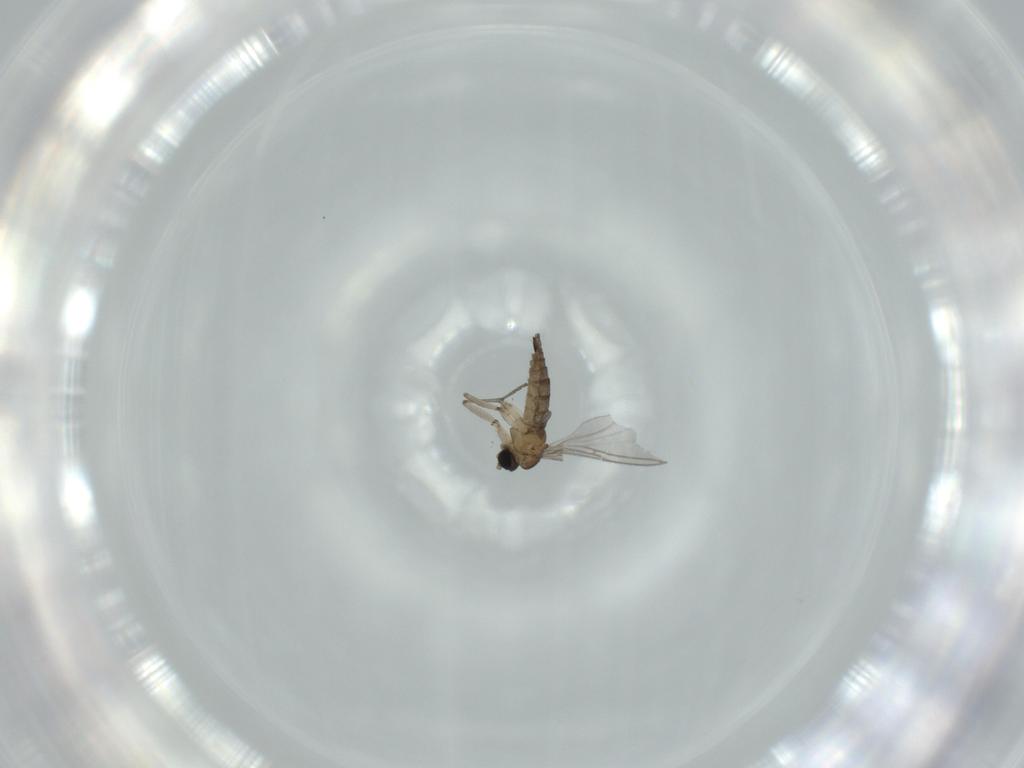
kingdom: Animalia
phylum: Arthropoda
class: Insecta
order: Diptera
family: Sciaridae
